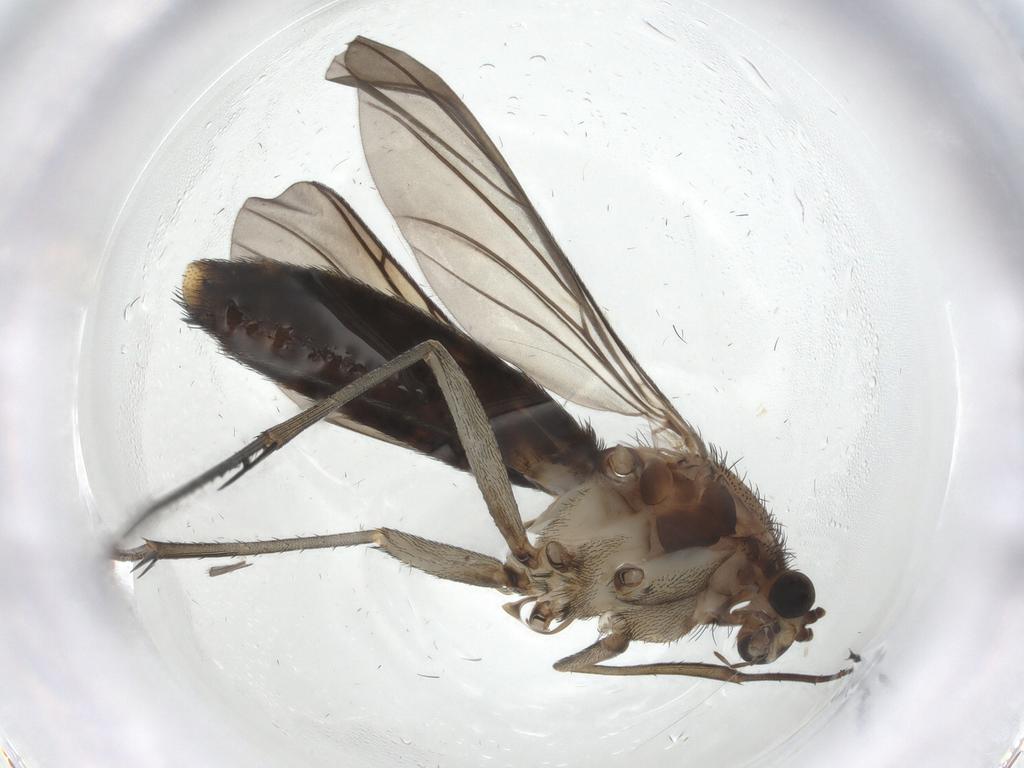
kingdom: Animalia
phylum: Arthropoda
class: Insecta
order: Diptera
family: Keroplatidae
